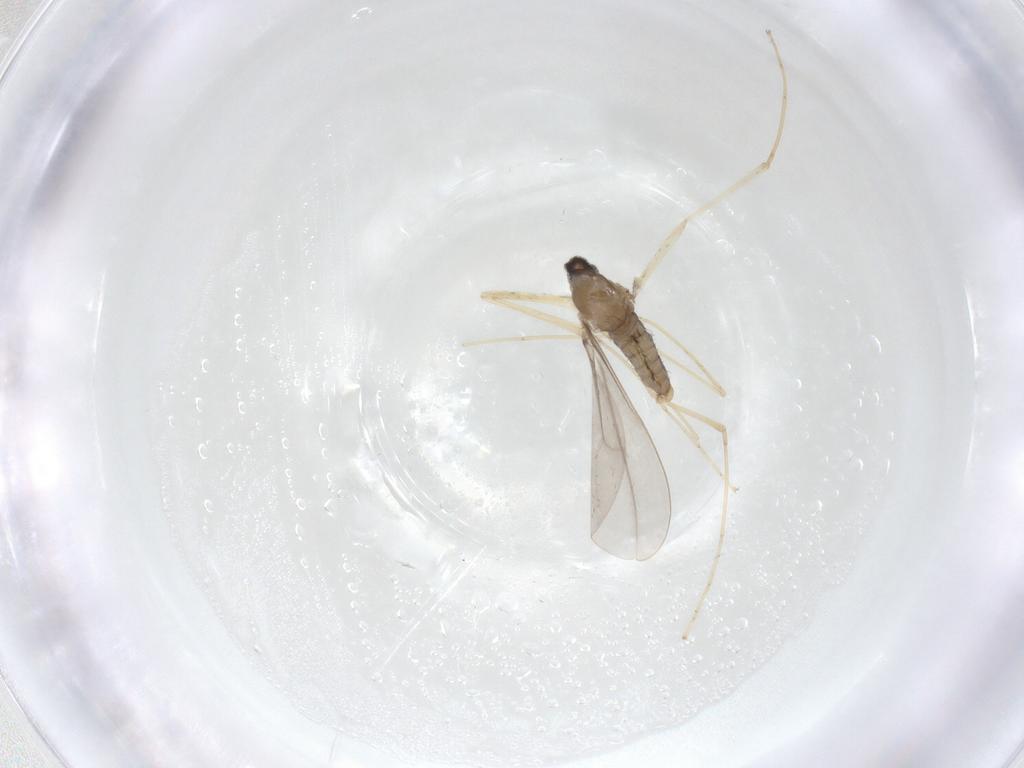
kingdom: Animalia
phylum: Arthropoda
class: Insecta
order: Diptera
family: Cecidomyiidae
